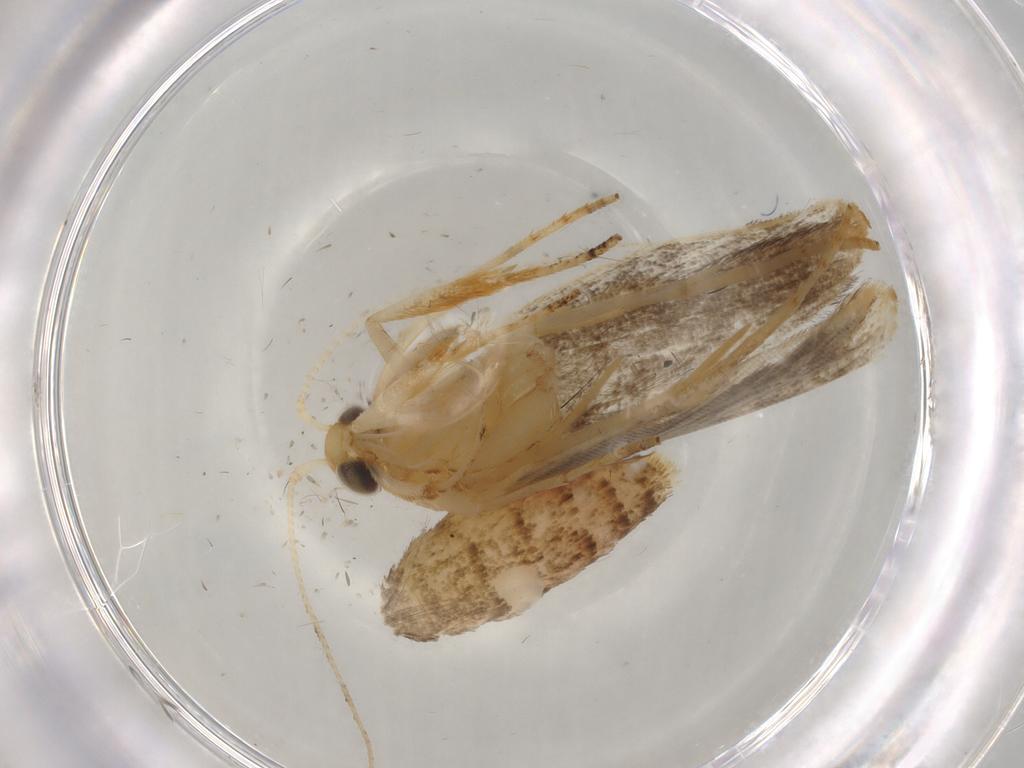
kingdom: Animalia
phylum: Arthropoda
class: Insecta
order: Lepidoptera
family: Gelechiidae
